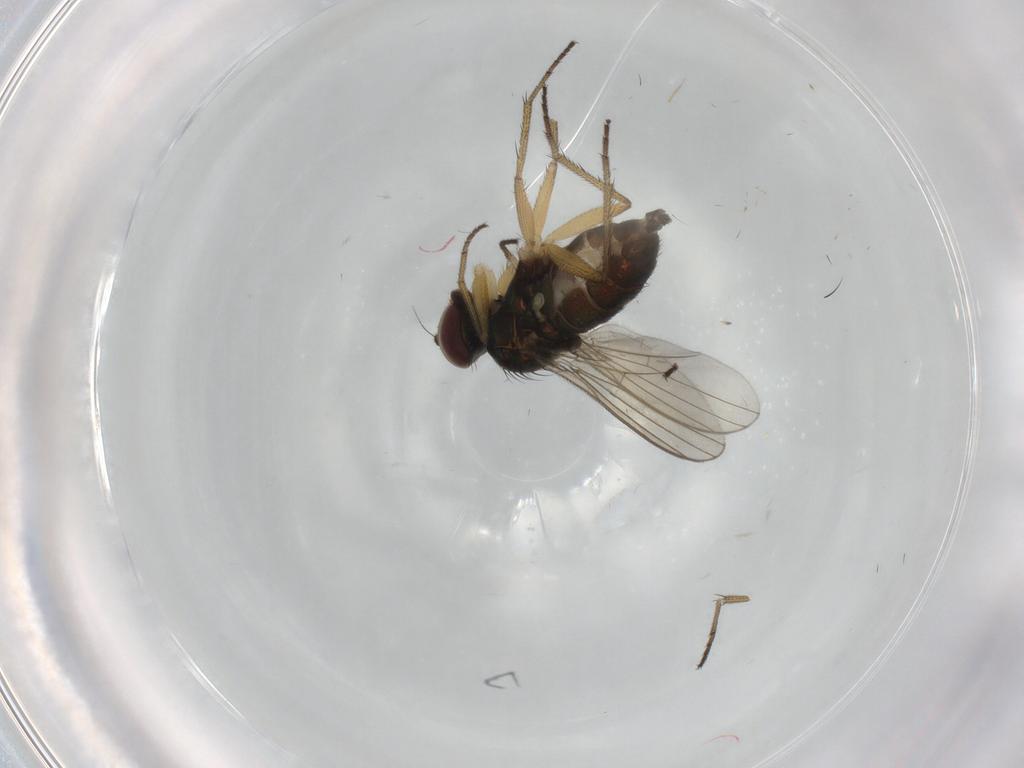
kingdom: Animalia
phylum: Arthropoda
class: Insecta
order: Diptera
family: Dolichopodidae
